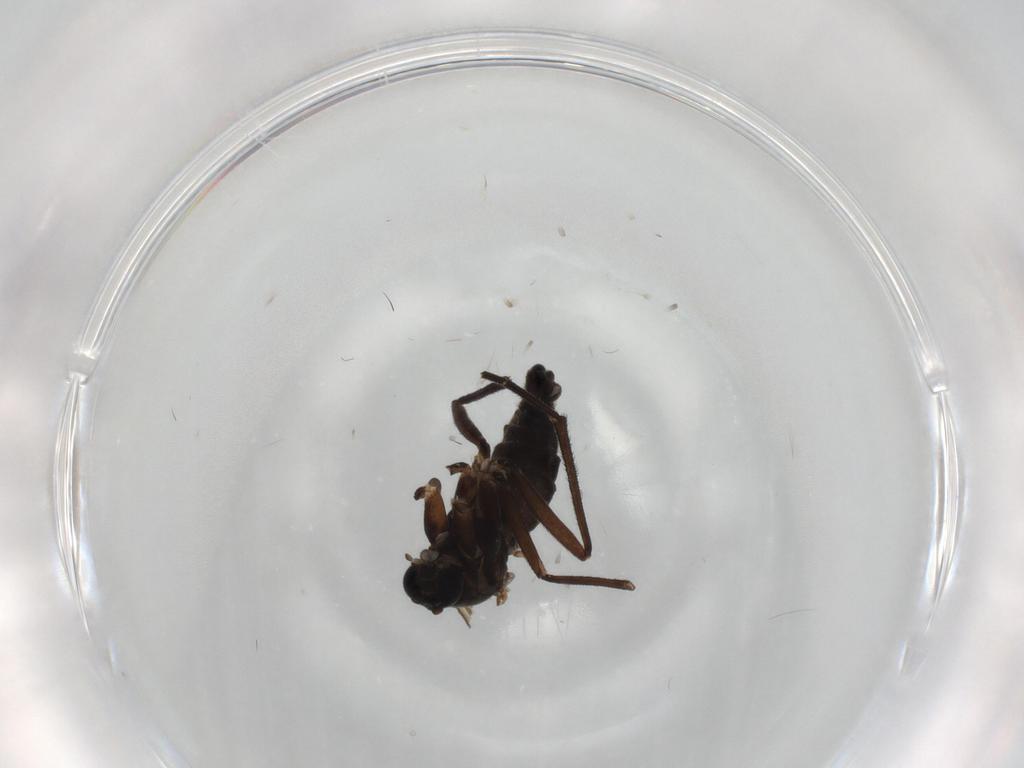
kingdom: Animalia
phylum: Arthropoda
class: Insecta
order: Diptera
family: Sciaridae
